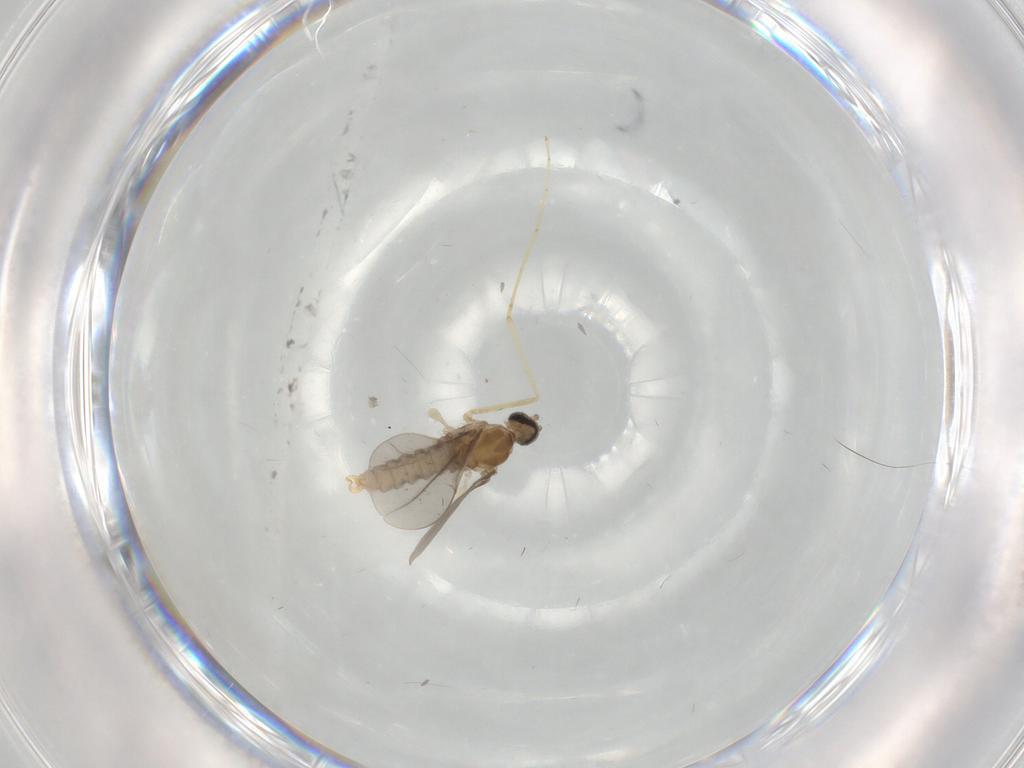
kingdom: Animalia
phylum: Arthropoda
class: Insecta
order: Diptera
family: Cecidomyiidae
